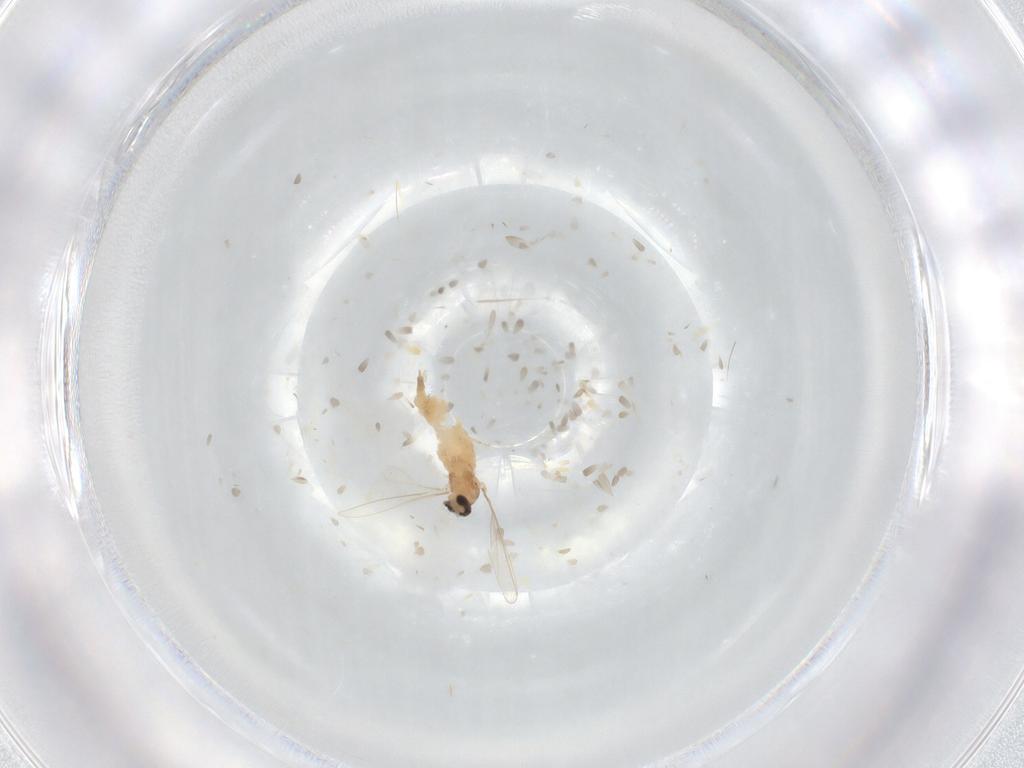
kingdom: Animalia
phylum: Arthropoda
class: Insecta
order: Diptera
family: Cecidomyiidae
